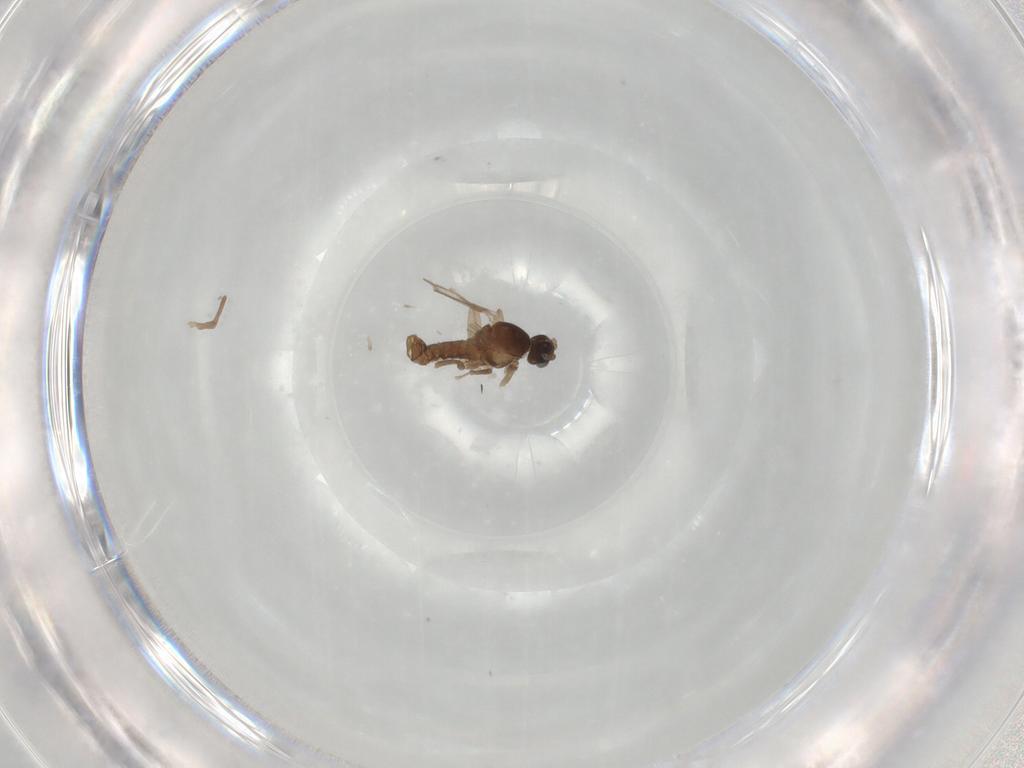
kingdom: Animalia
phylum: Arthropoda
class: Insecta
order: Diptera
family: Cecidomyiidae
